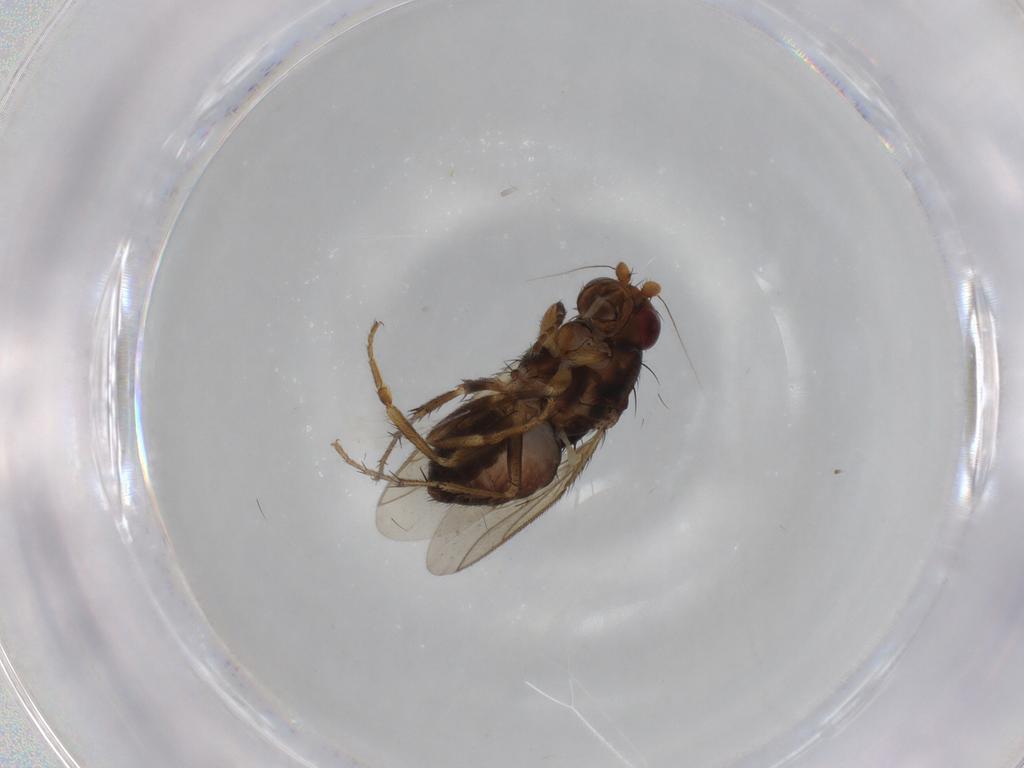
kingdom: Animalia
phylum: Arthropoda
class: Insecta
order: Diptera
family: Sphaeroceridae
